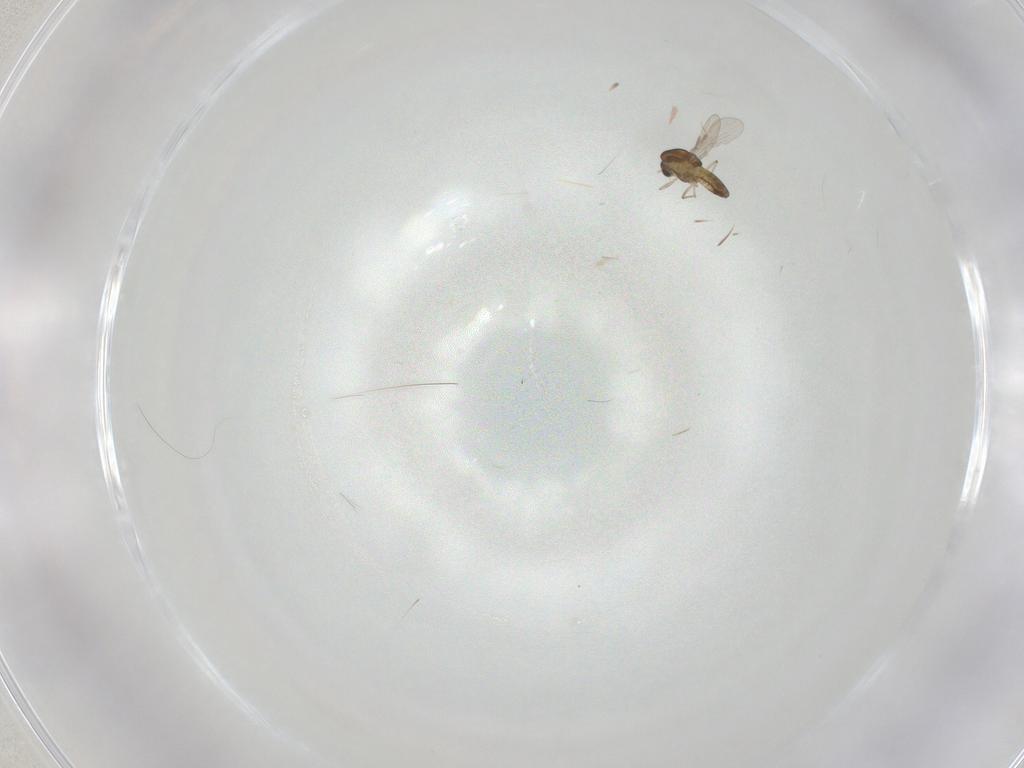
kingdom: Animalia
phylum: Arthropoda
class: Insecta
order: Diptera
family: Chironomidae
